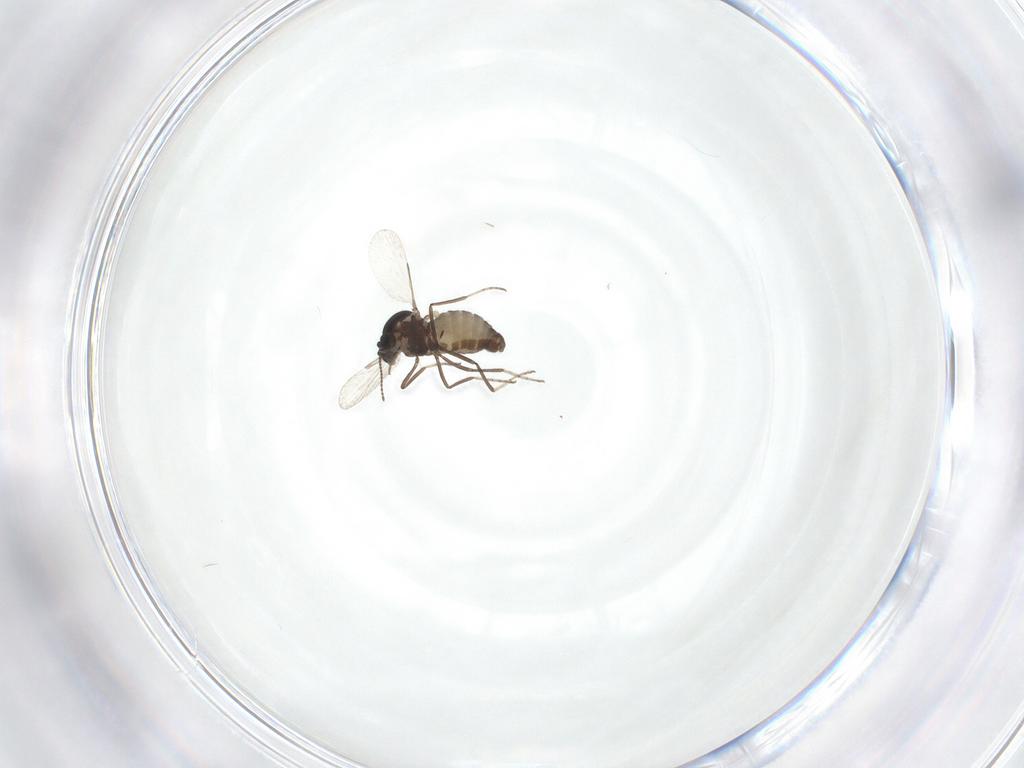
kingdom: Animalia
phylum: Arthropoda
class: Insecta
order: Diptera
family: Ceratopogonidae
